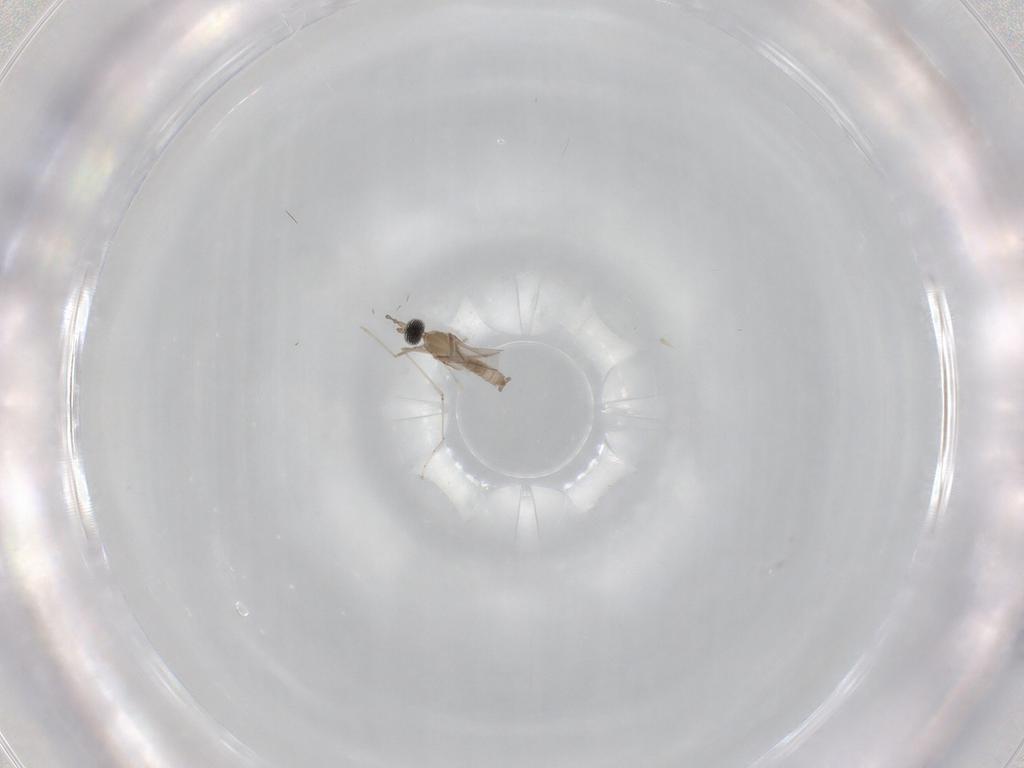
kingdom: Animalia
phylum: Arthropoda
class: Insecta
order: Diptera
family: Cecidomyiidae
